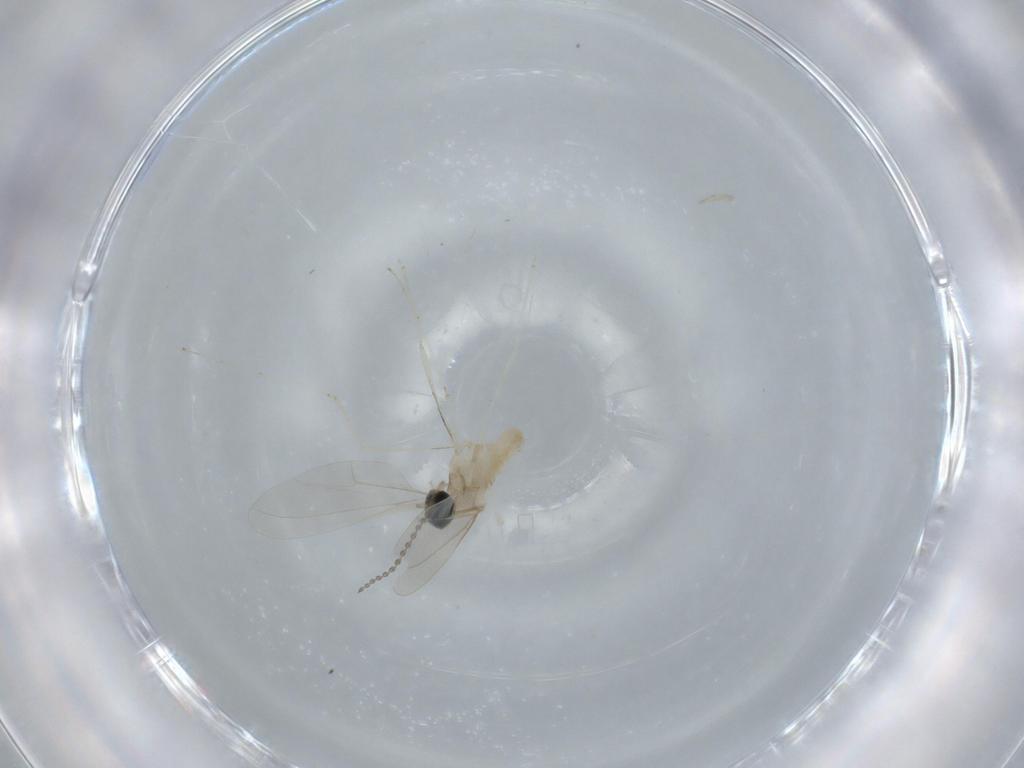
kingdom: Animalia
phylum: Arthropoda
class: Insecta
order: Diptera
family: Cecidomyiidae
